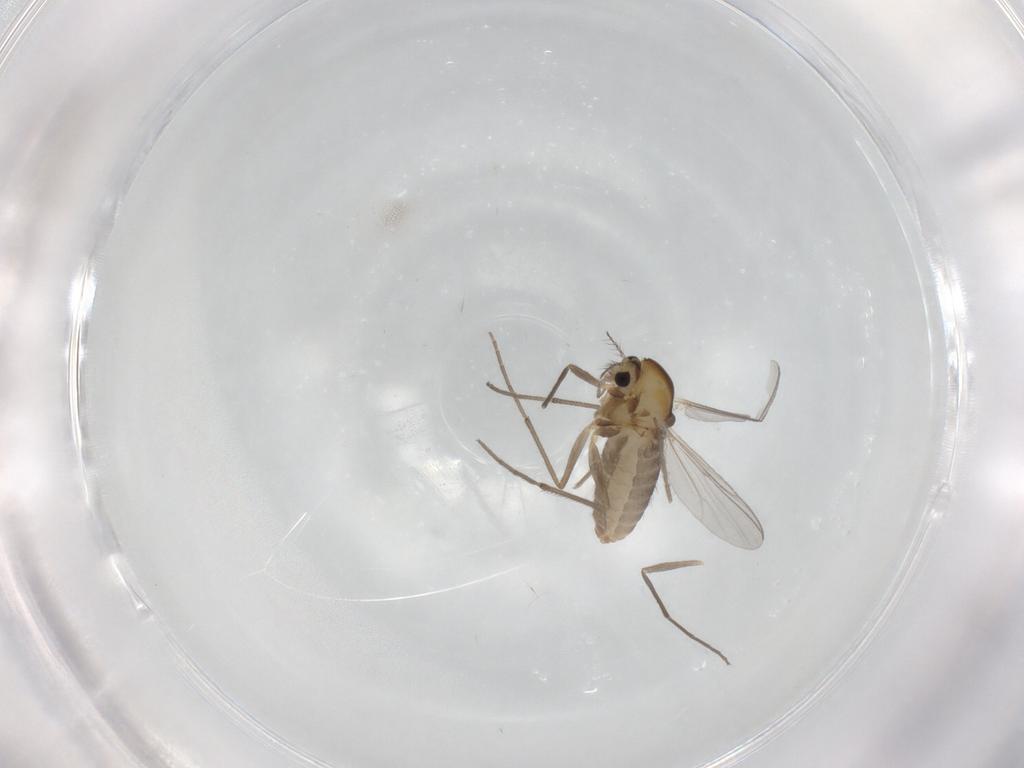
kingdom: Animalia
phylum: Arthropoda
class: Insecta
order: Diptera
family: Chironomidae
